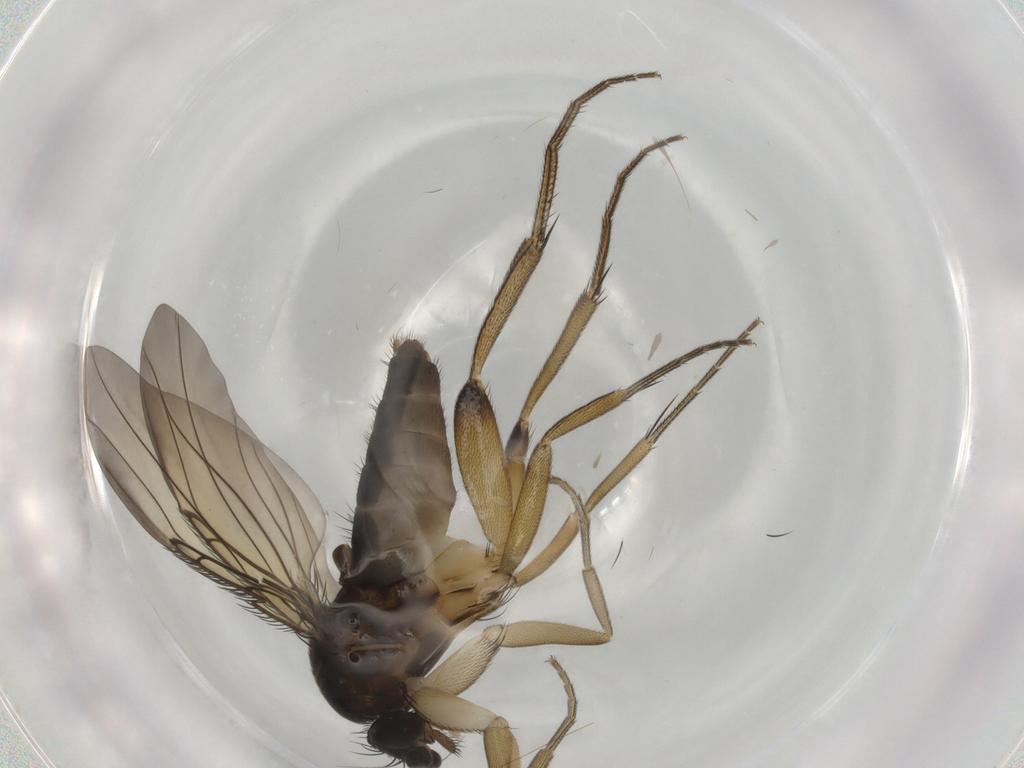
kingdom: Animalia
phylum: Arthropoda
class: Insecta
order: Diptera
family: Phoridae
